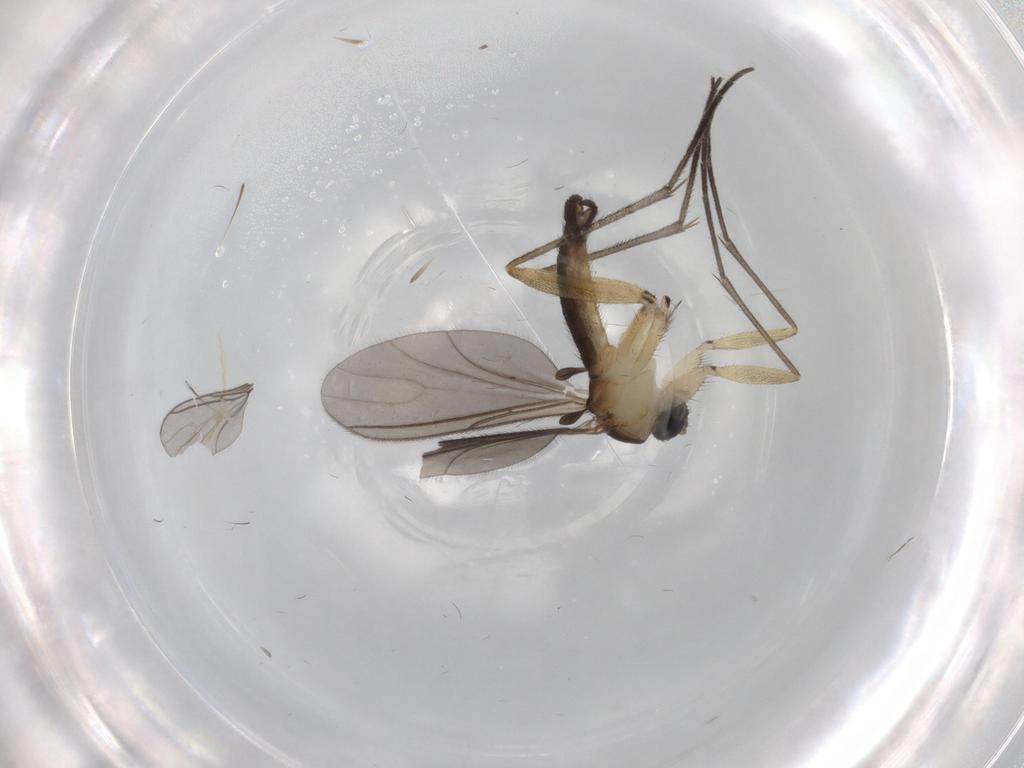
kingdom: Animalia
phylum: Arthropoda
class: Insecta
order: Diptera
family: Sciaridae
